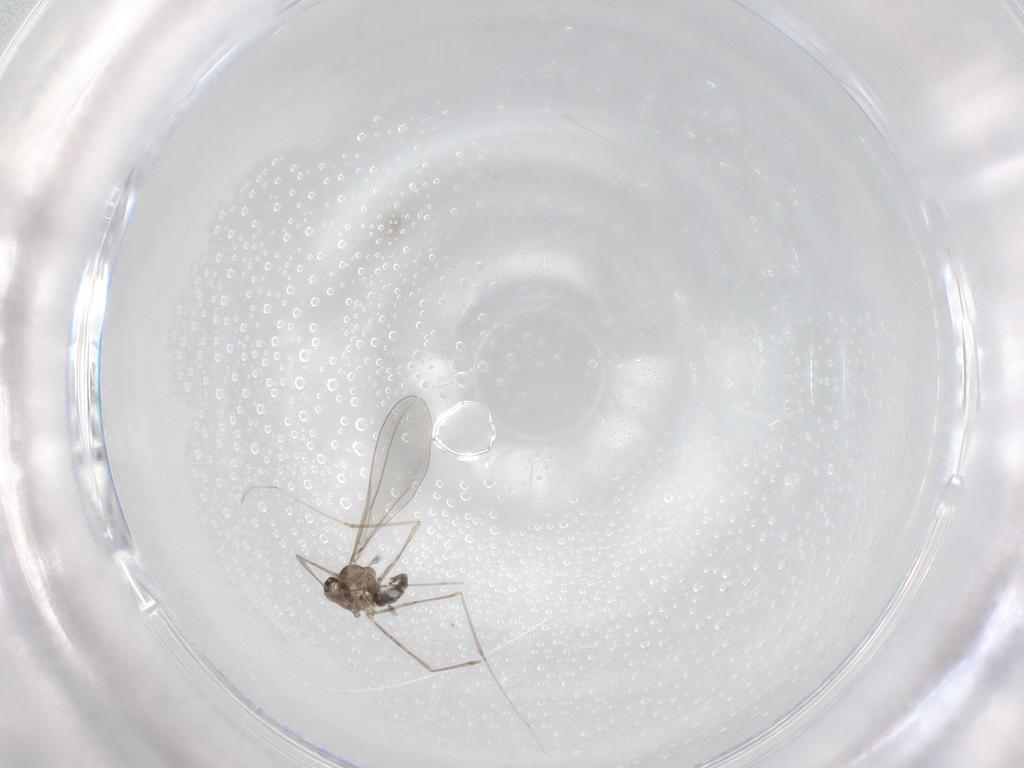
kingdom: Animalia
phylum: Arthropoda
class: Insecta
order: Diptera
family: Cecidomyiidae
